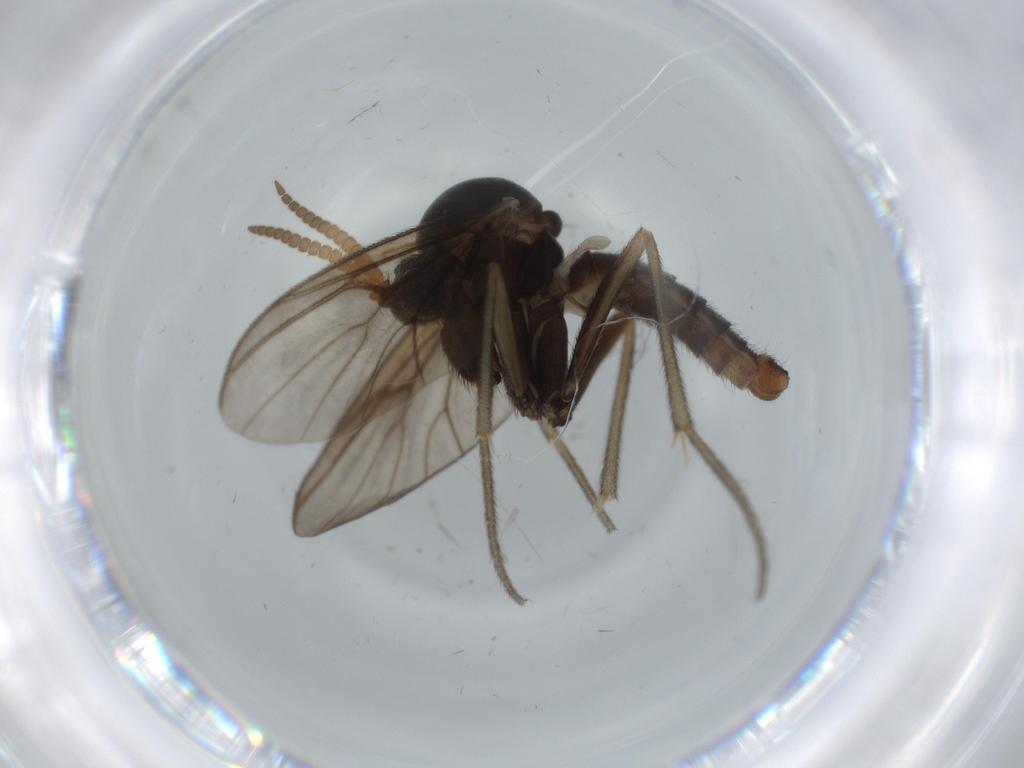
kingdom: Animalia
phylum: Arthropoda
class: Insecta
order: Diptera
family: Ceratopogonidae
